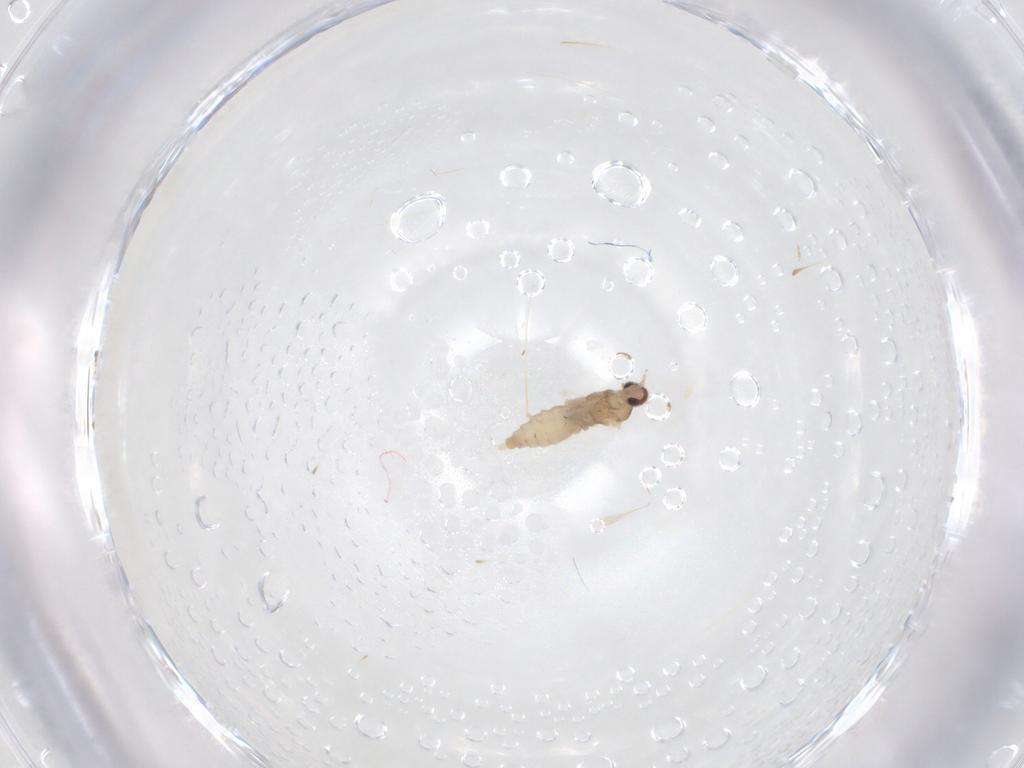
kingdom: Animalia
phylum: Arthropoda
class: Insecta
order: Diptera
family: Cecidomyiidae
